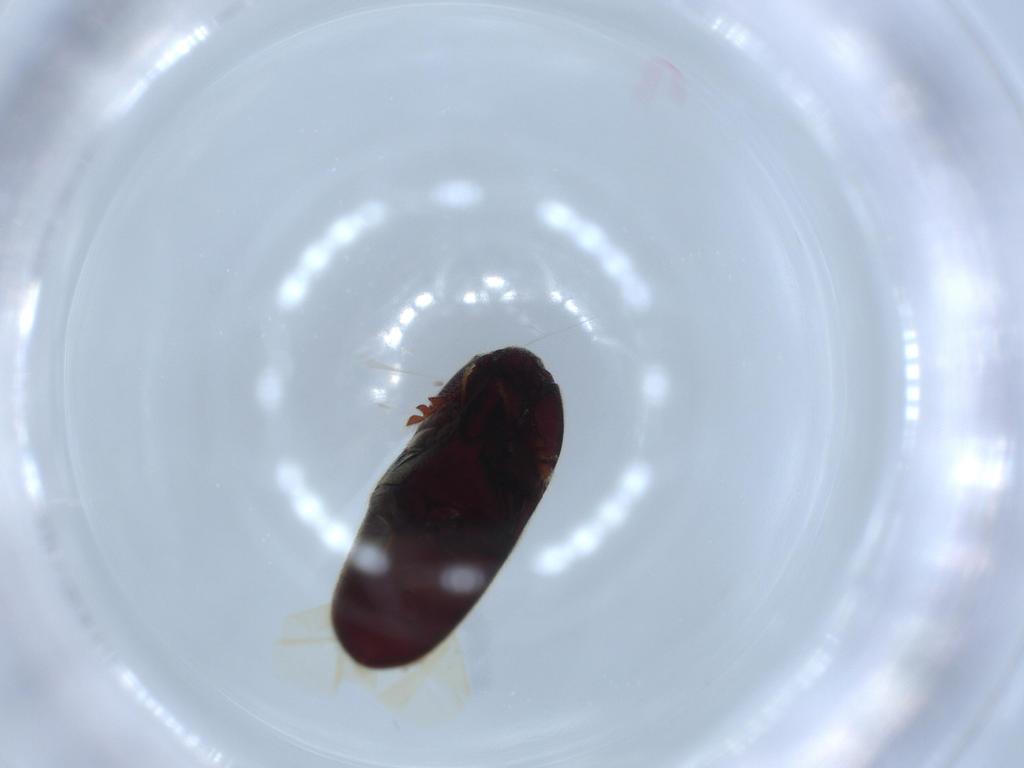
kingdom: Animalia
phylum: Arthropoda
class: Insecta
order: Coleoptera
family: Throscidae
